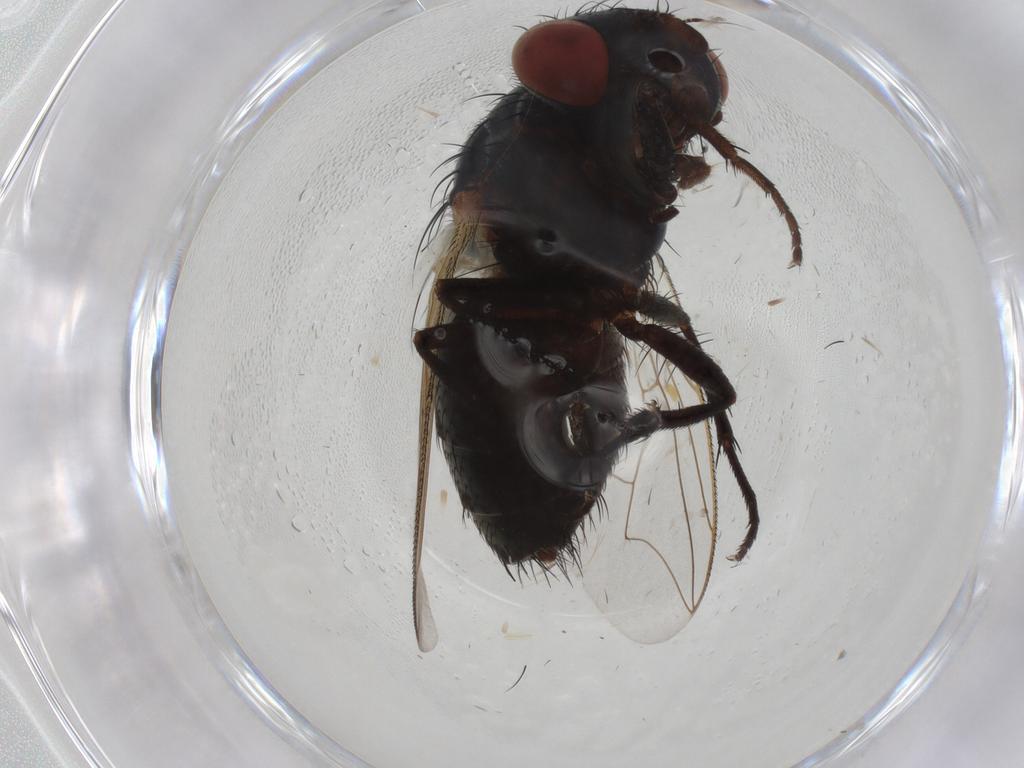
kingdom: Animalia
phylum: Arthropoda
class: Insecta
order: Diptera
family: Sarcophagidae
